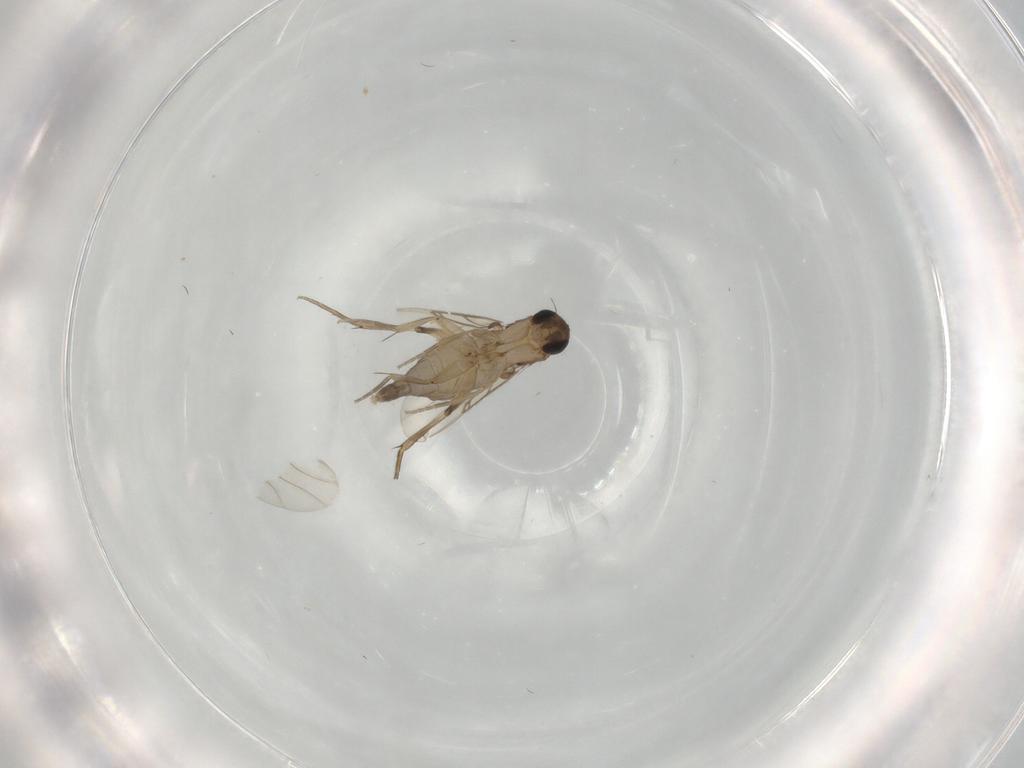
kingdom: Animalia
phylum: Arthropoda
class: Insecta
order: Diptera
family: Phoridae
